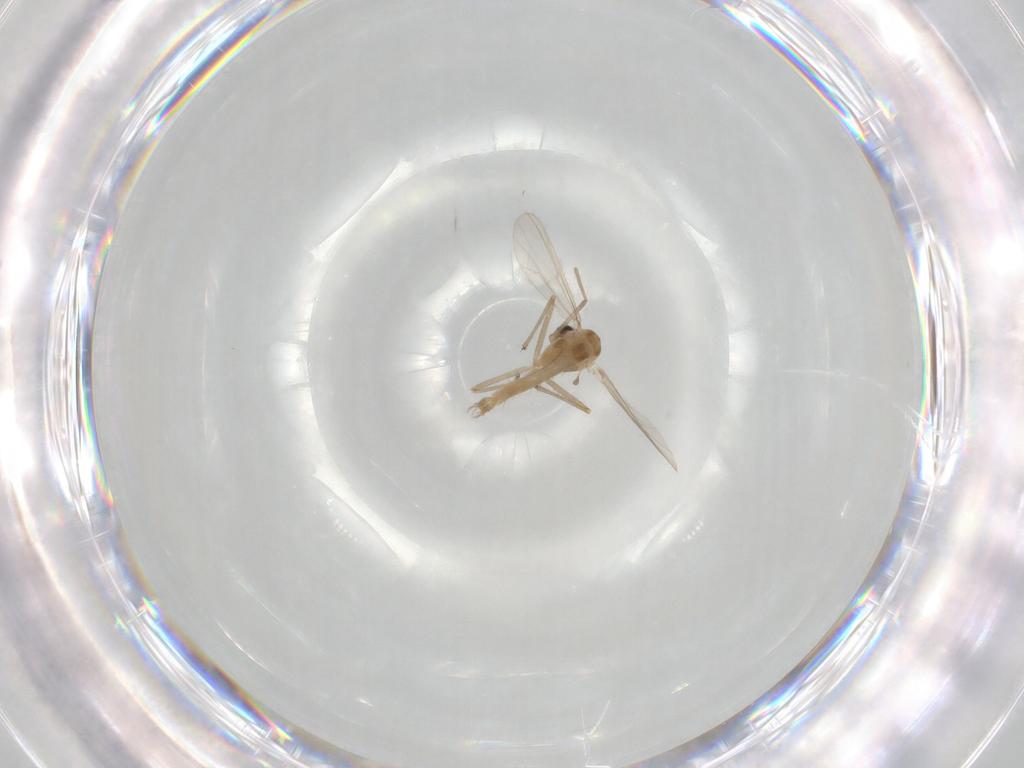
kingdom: Animalia
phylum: Arthropoda
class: Insecta
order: Diptera
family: Chironomidae
